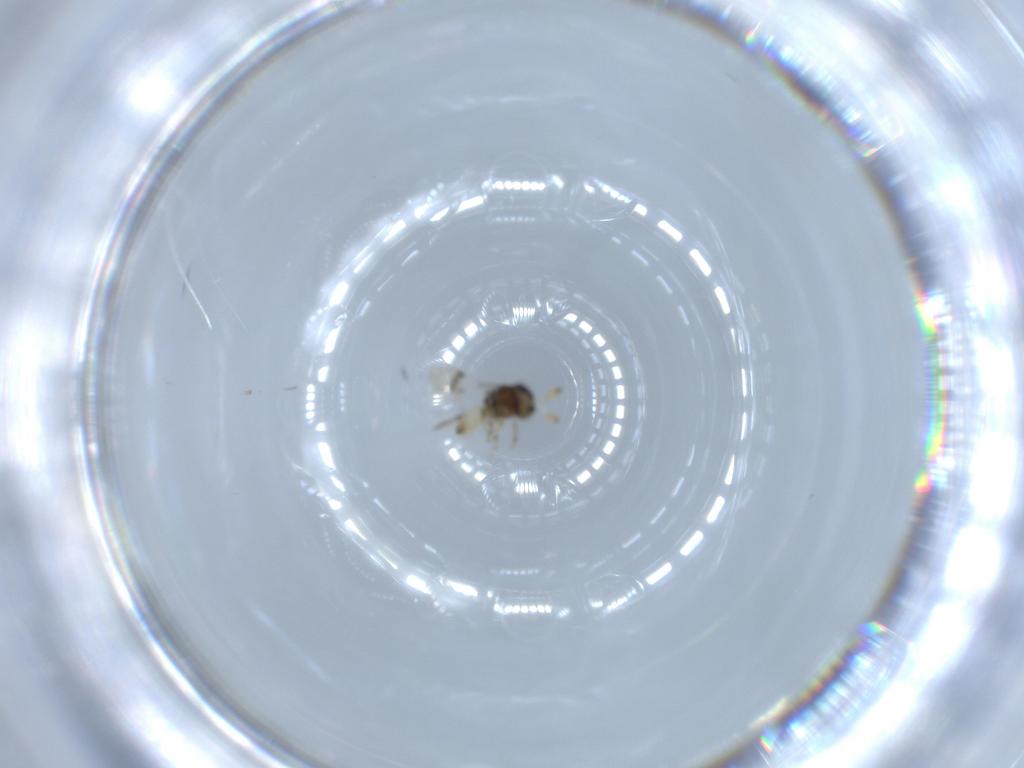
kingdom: Animalia
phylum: Arthropoda
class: Insecta
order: Hymenoptera
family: Scelionidae
